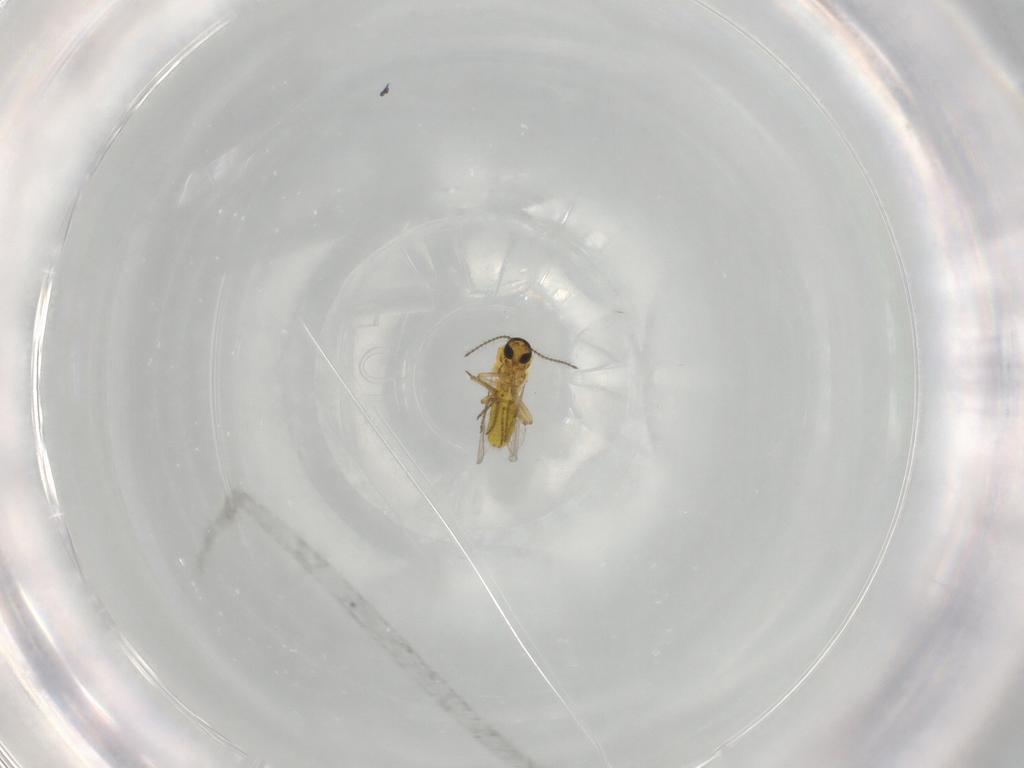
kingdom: Animalia
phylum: Arthropoda
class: Insecta
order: Diptera
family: Ceratopogonidae
